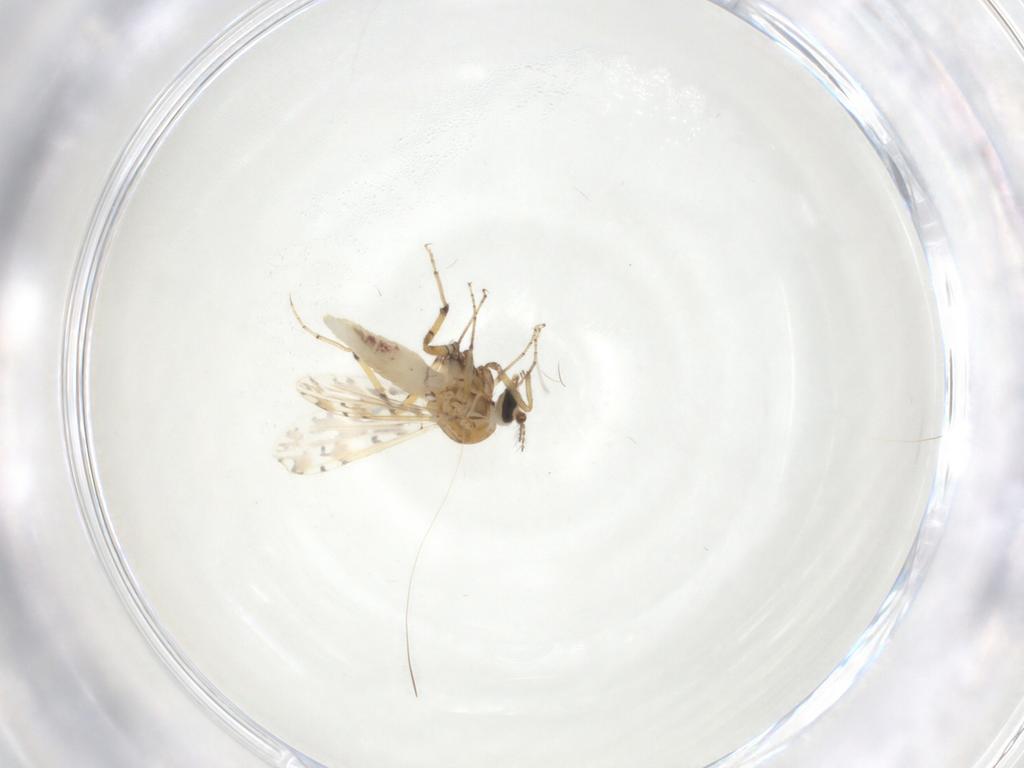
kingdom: Animalia
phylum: Arthropoda
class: Insecta
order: Diptera
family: Ceratopogonidae
